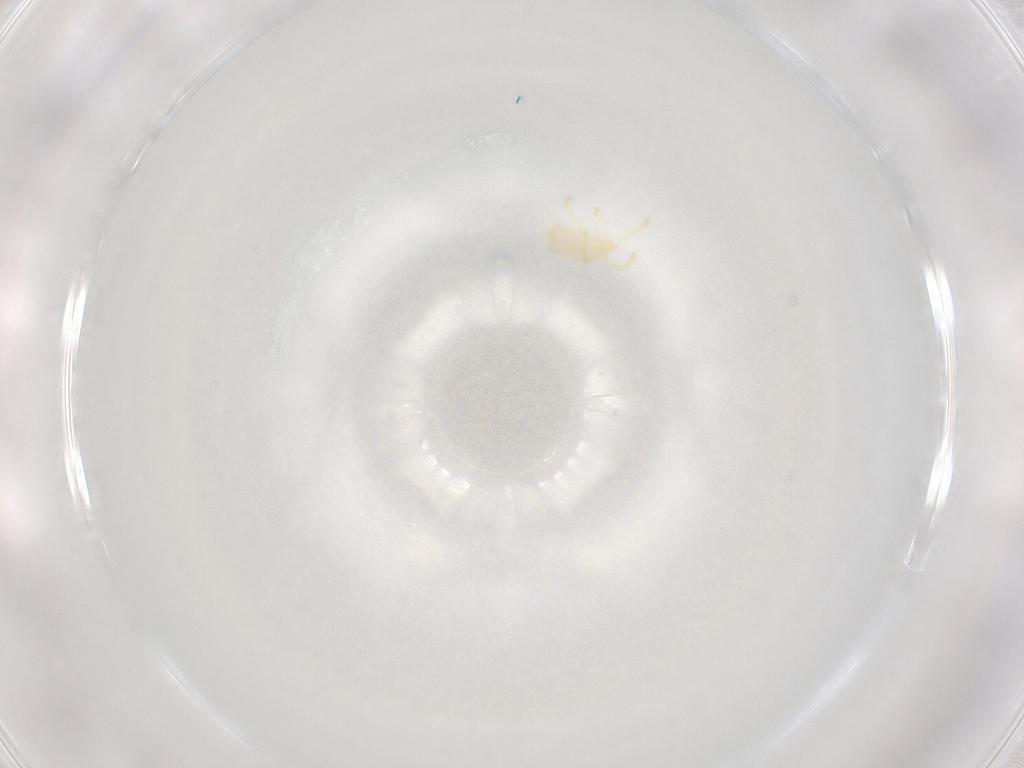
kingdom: Animalia
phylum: Arthropoda
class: Arachnida
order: Trombidiformes
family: Trombidiidae
